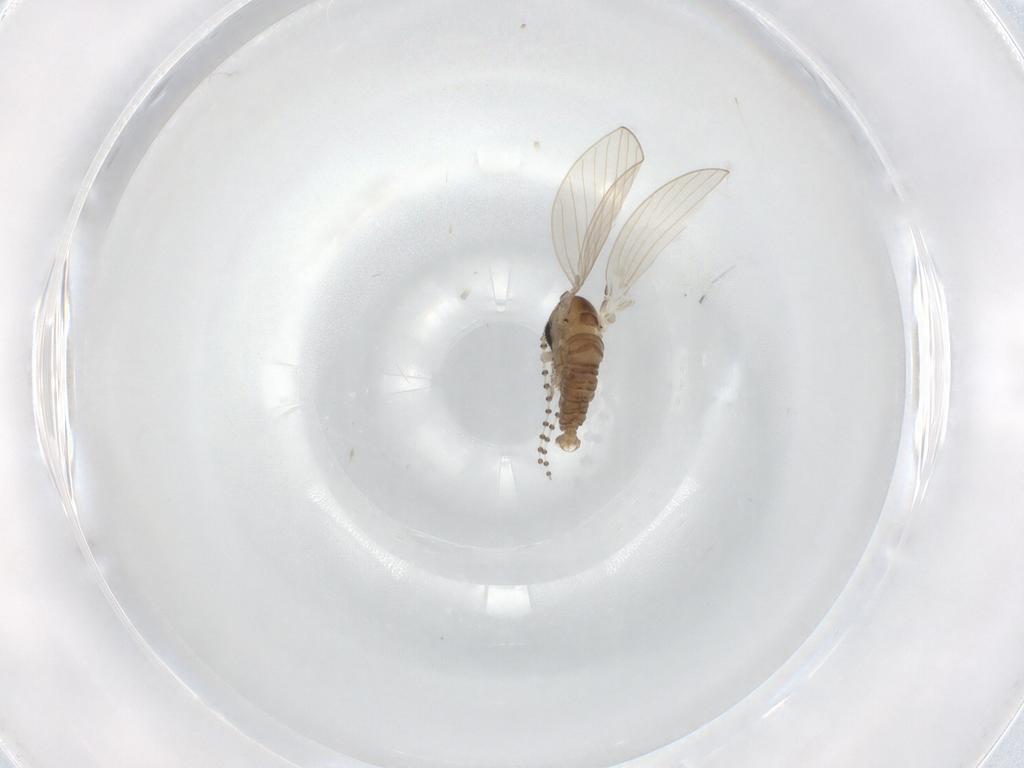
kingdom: Animalia
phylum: Arthropoda
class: Insecta
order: Diptera
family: Psychodidae
